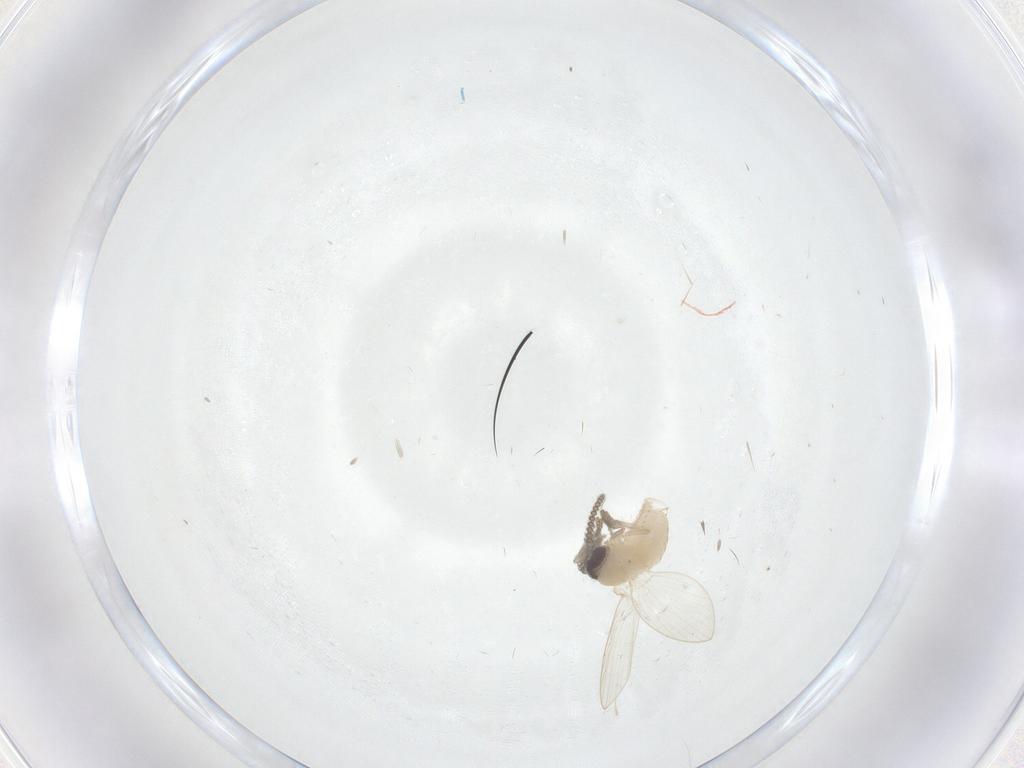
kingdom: Animalia
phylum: Arthropoda
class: Insecta
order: Diptera
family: Psychodidae
